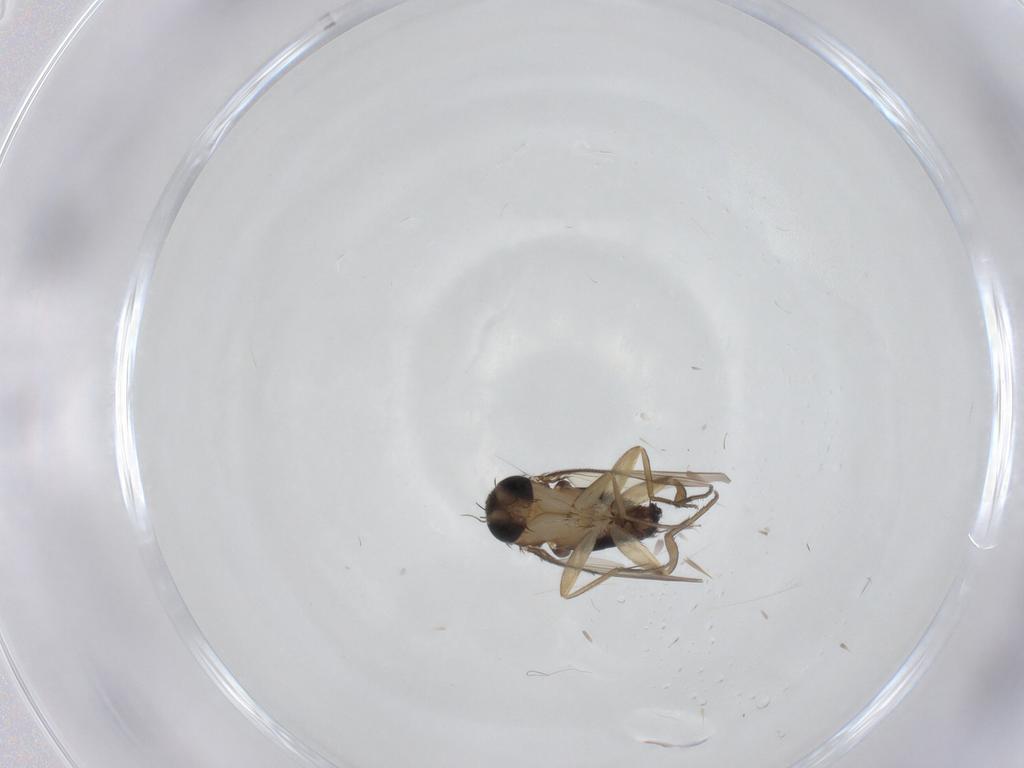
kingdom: Animalia
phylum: Arthropoda
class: Insecta
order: Diptera
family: Phoridae
